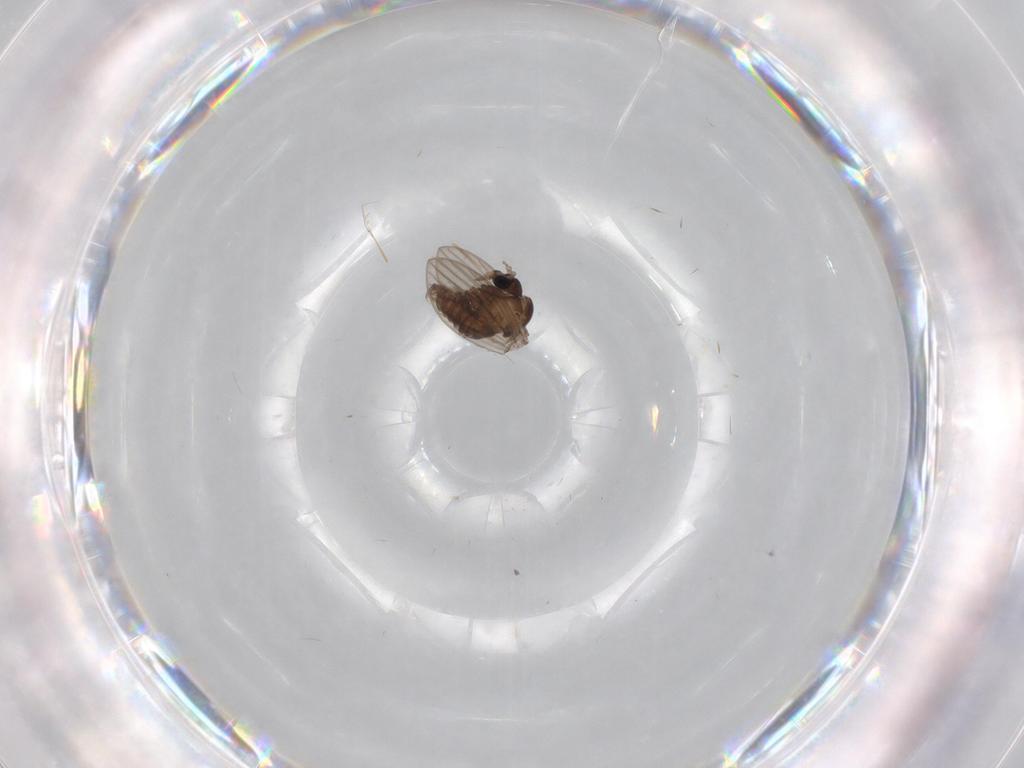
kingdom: Animalia
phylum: Arthropoda
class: Insecta
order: Diptera
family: Psychodidae
